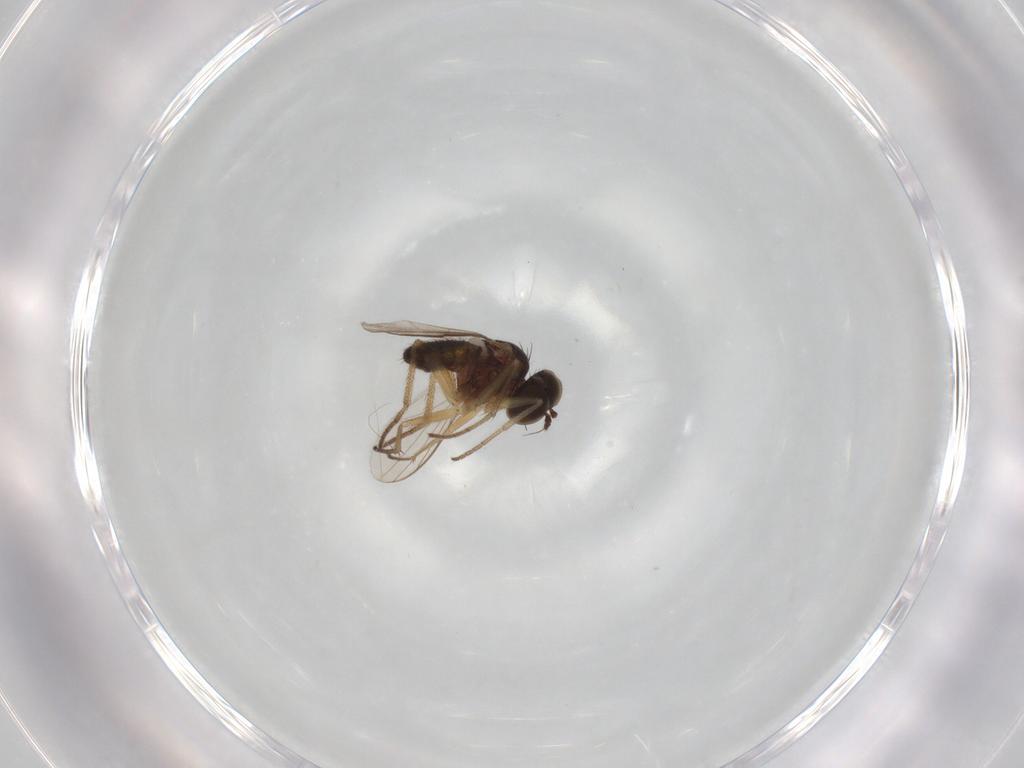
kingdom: Animalia
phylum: Arthropoda
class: Insecta
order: Diptera
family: Dolichopodidae
